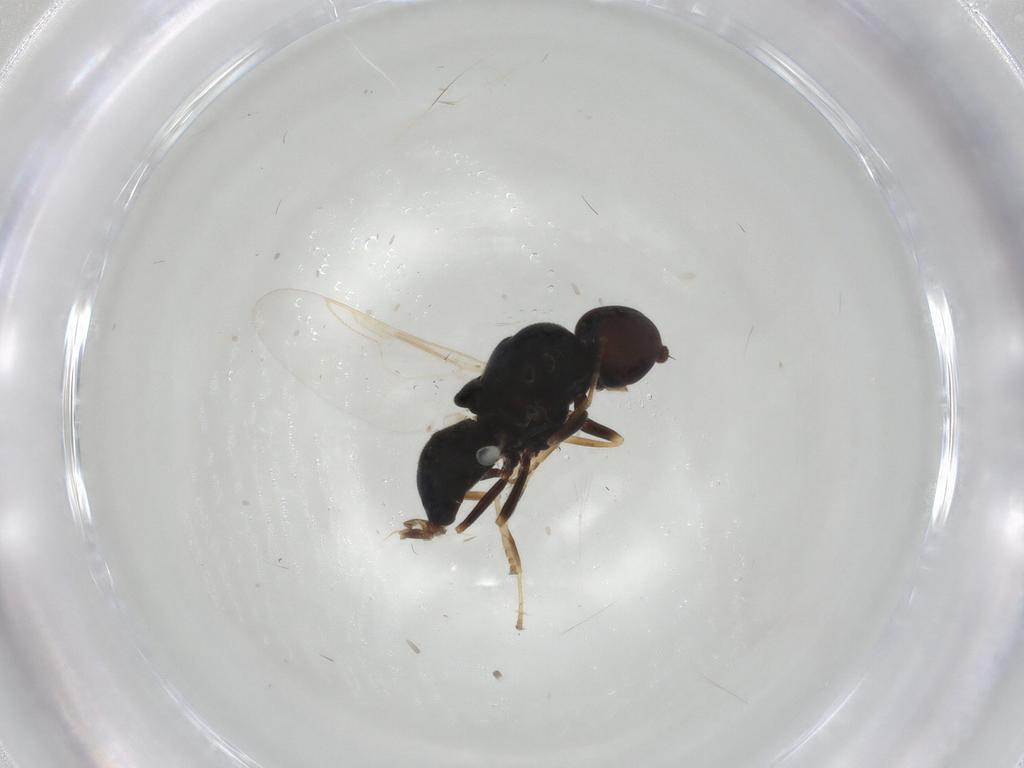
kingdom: Animalia
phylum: Arthropoda
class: Insecta
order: Diptera
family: Stratiomyidae
